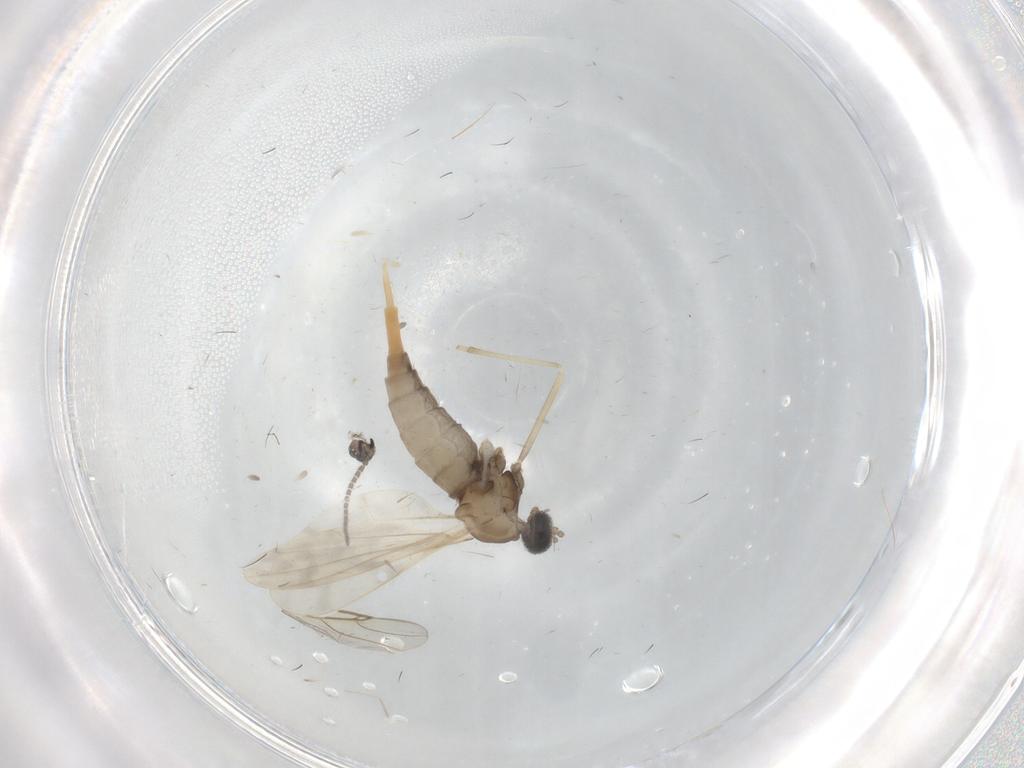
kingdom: Animalia
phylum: Arthropoda
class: Insecta
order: Diptera
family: Cecidomyiidae
